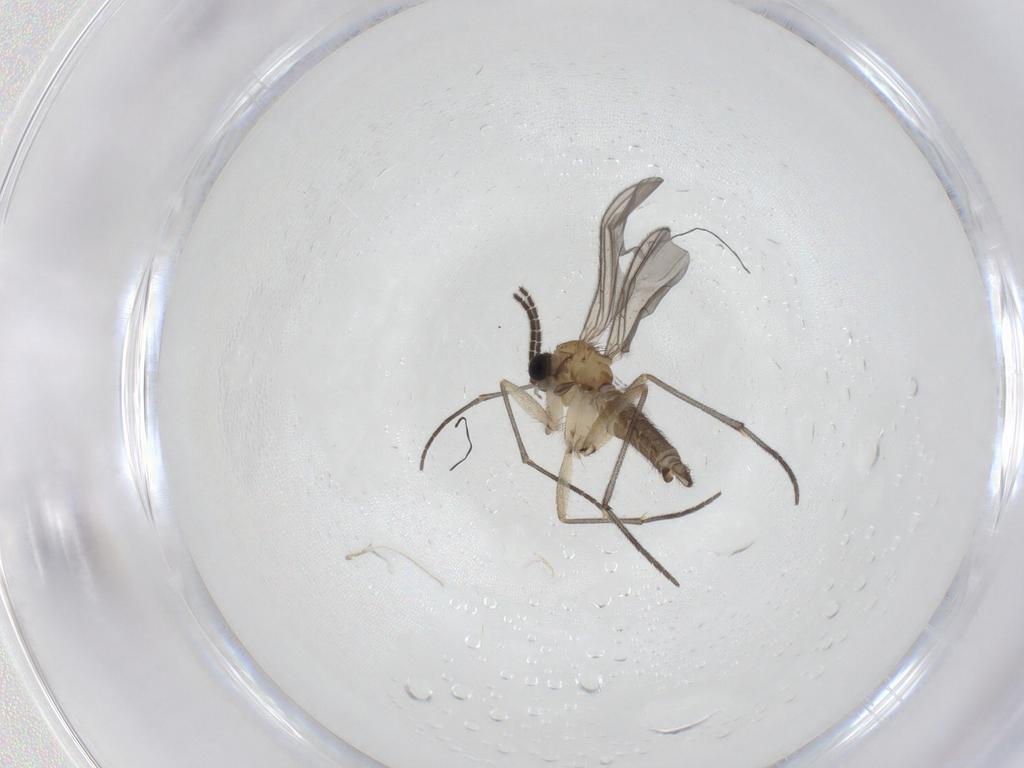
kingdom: Animalia
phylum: Arthropoda
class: Insecta
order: Diptera
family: Sciaridae
